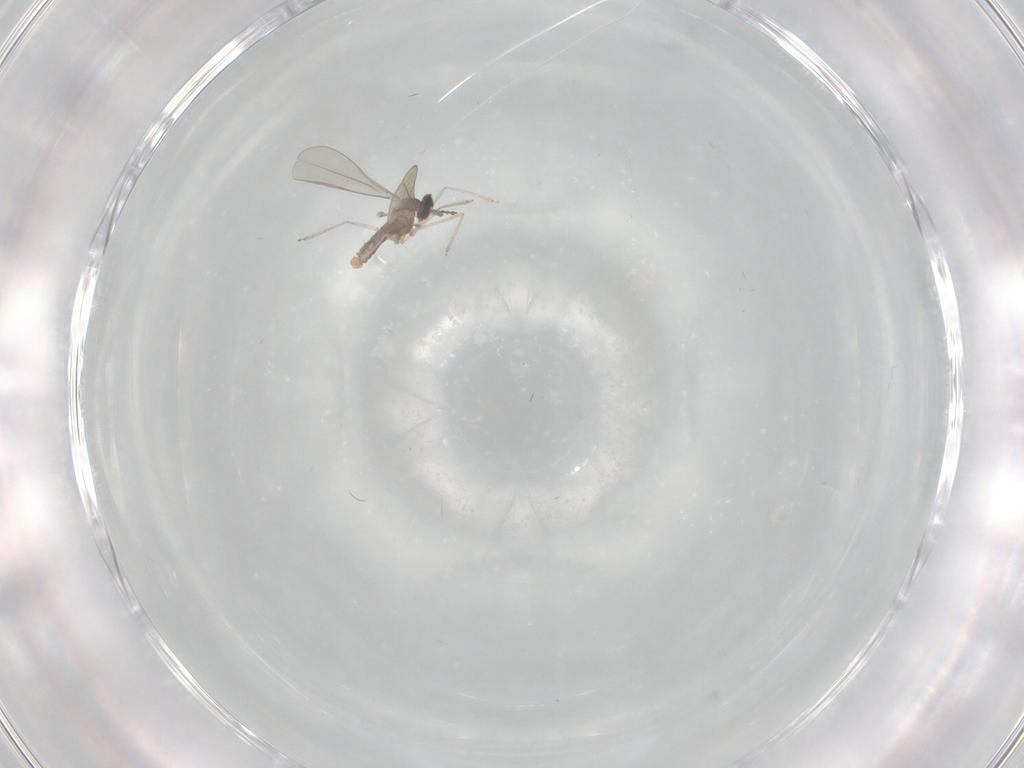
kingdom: Animalia
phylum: Arthropoda
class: Insecta
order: Diptera
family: Cecidomyiidae
